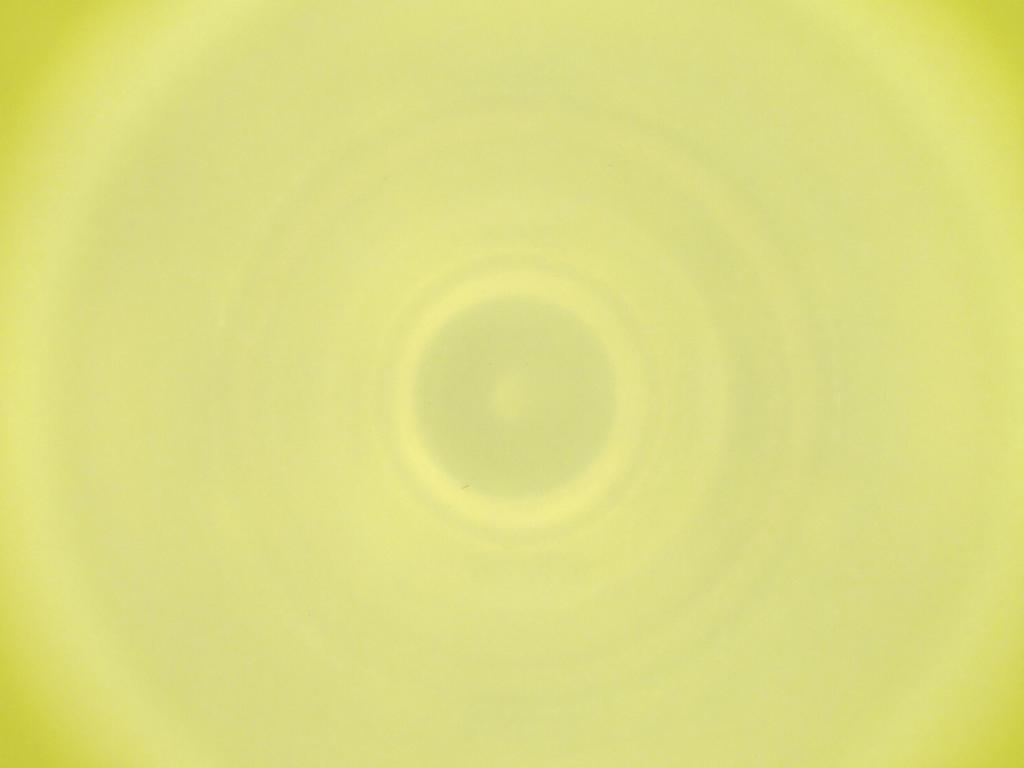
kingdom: Animalia
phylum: Arthropoda
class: Insecta
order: Diptera
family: Cecidomyiidae
